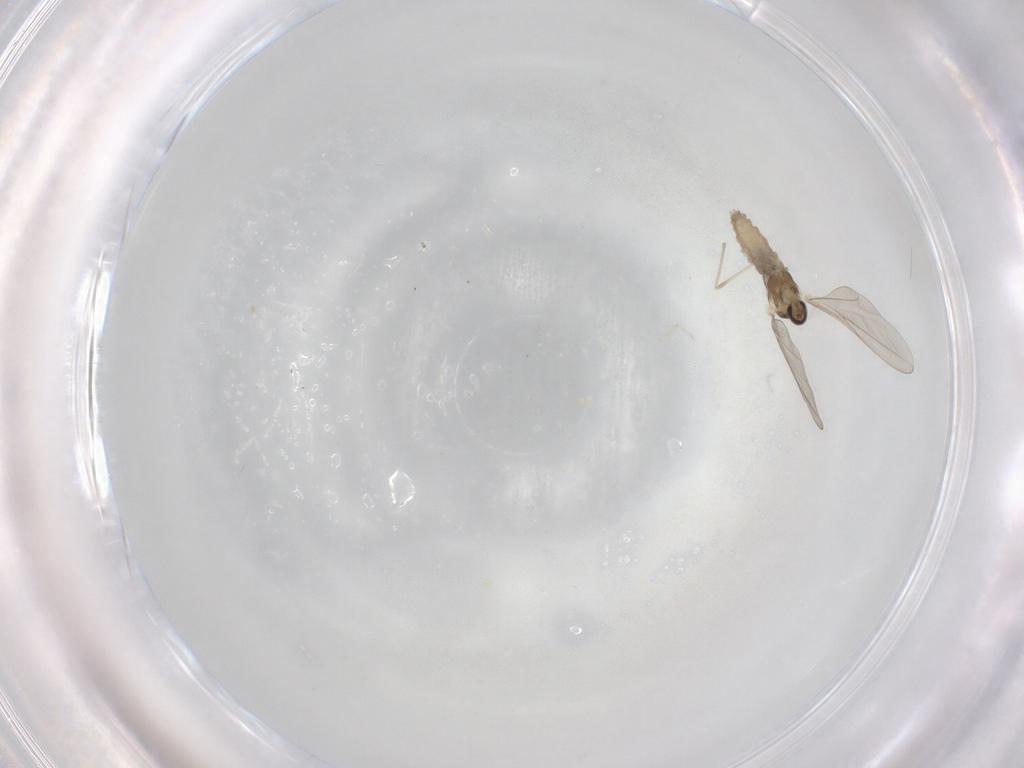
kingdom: Animalia
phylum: Arthropoda
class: Insecta
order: Diptera
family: Cecidomyiidae
